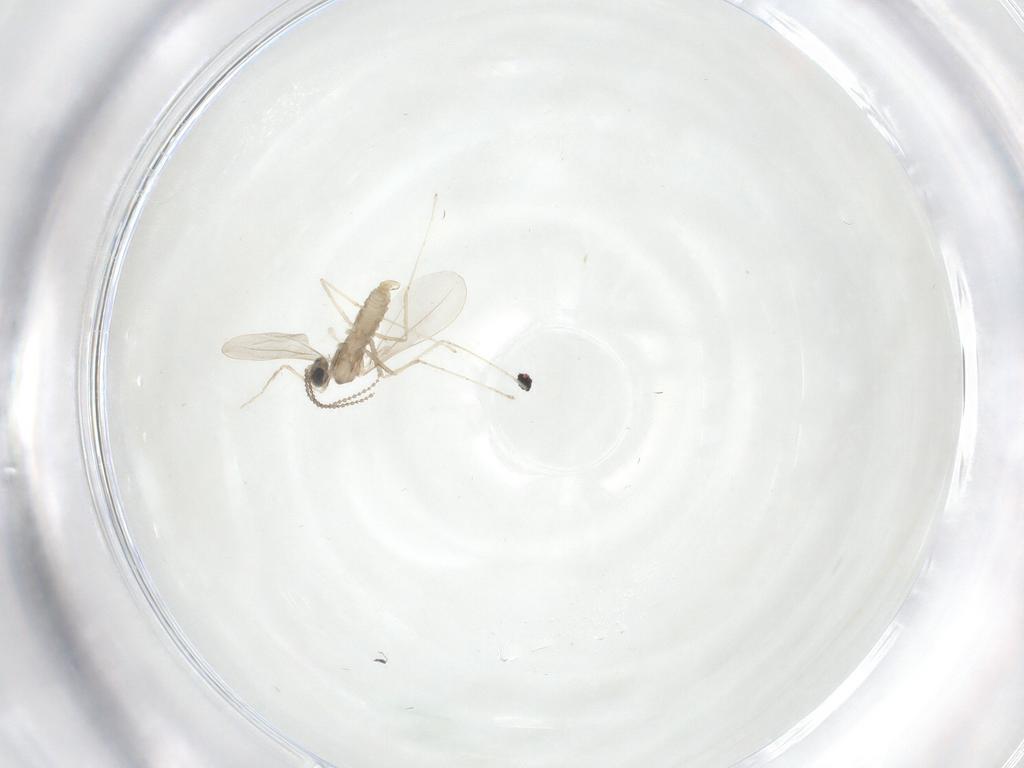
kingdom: Animalia
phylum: Arthropoda
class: Insecta
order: Diptera
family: Cecidomyiidae
